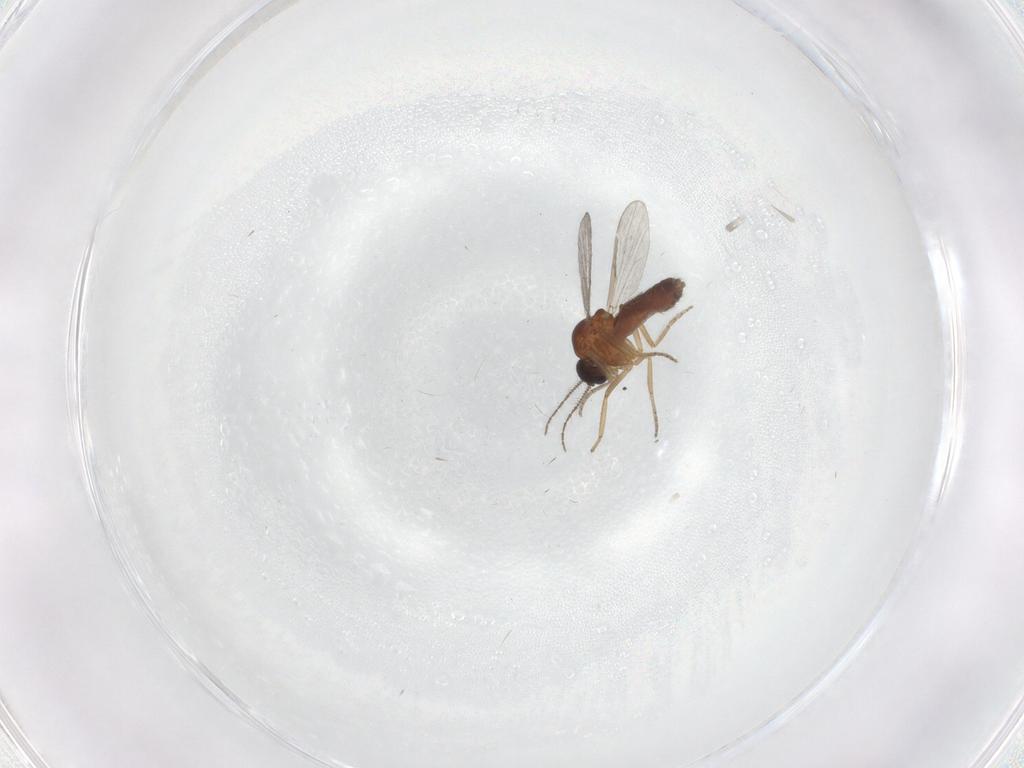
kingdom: Animalia
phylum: Arthropoda
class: Insecta
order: Diptera
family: Ceratopogonidae
